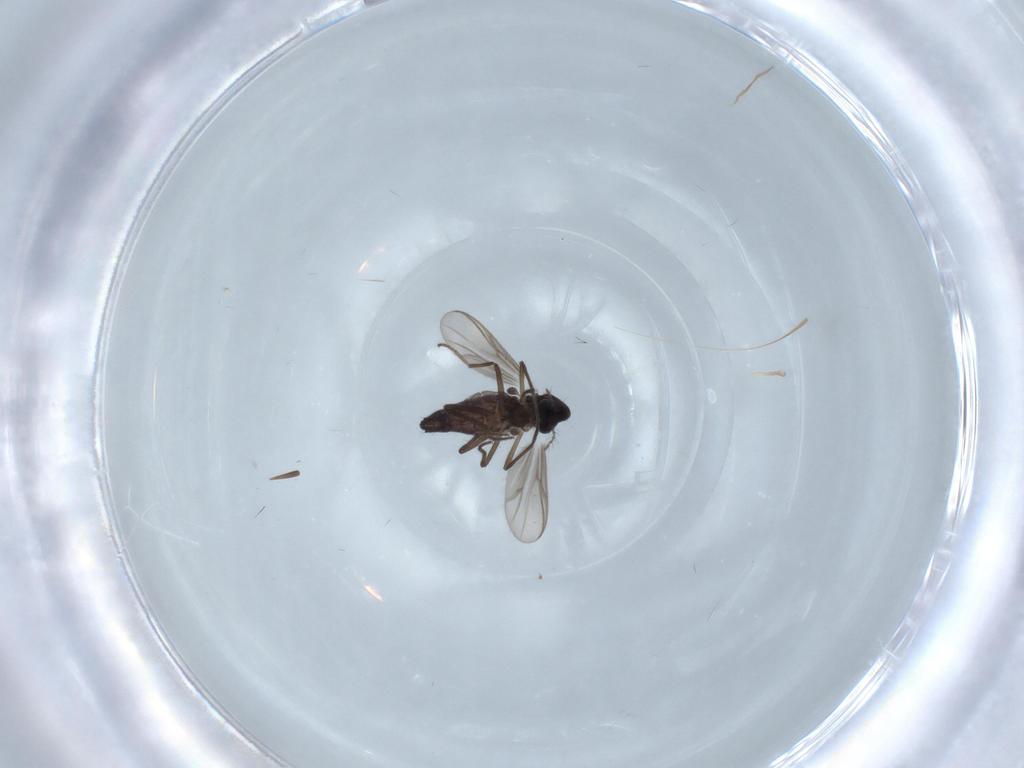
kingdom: Animalia
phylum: Arthropoda
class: Insecta
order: Diptera
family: Chironomidae
